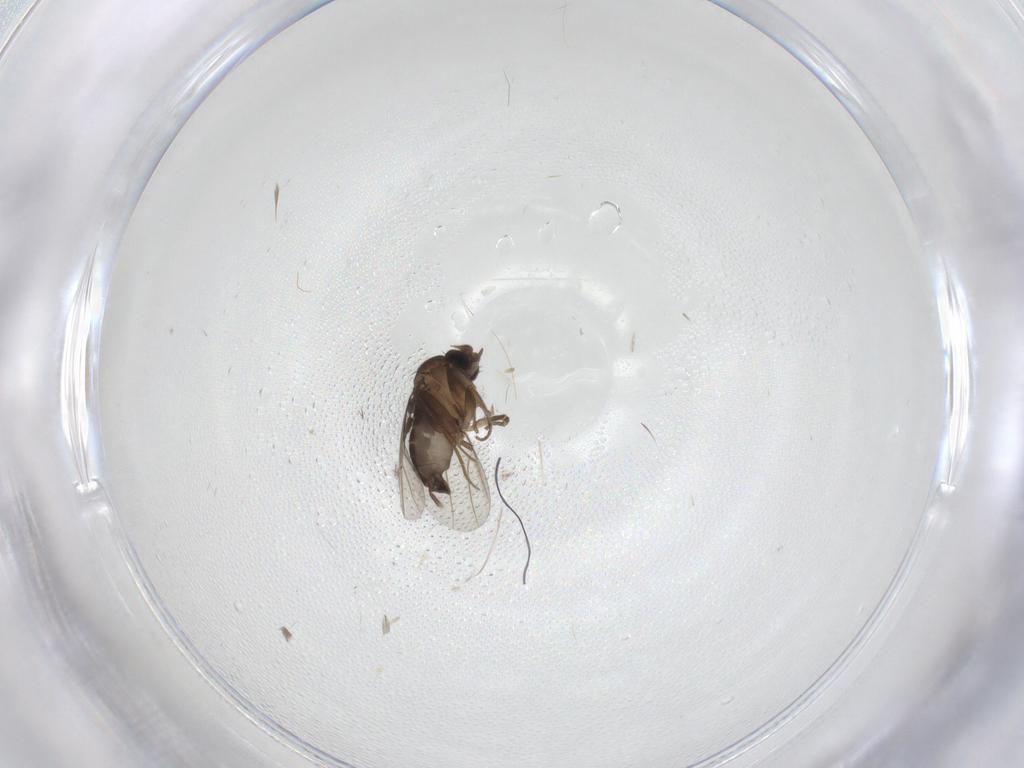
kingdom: Animalia
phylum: Arthropoda
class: Insecta
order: Diptera
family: Phoridae
